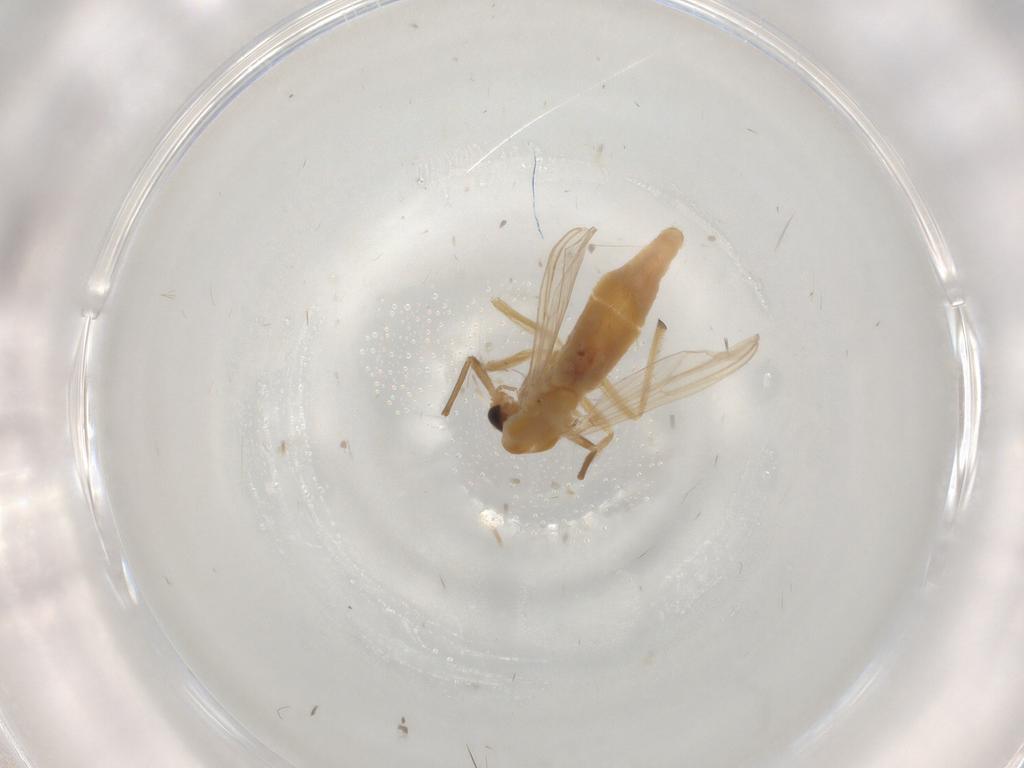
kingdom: Animalia
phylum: Arthropoda
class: Insecta
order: Diptera
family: Chironomidae
